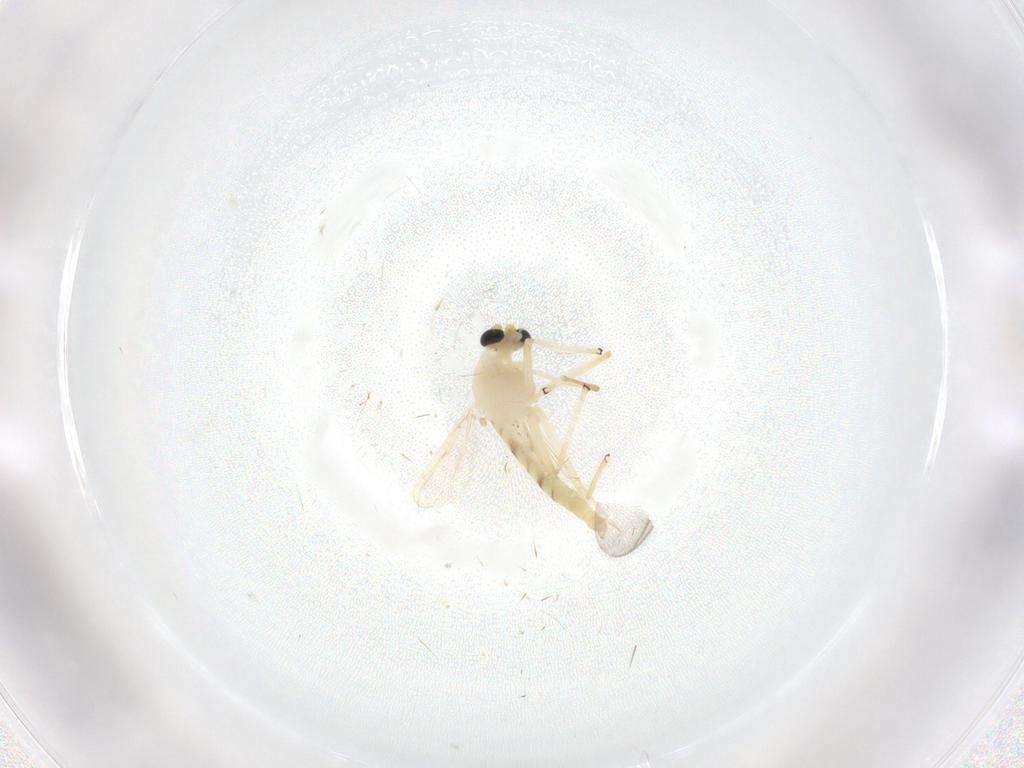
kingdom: Animalia
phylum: Arthropoda
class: Insecta
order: Diptera
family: Chironomidae
